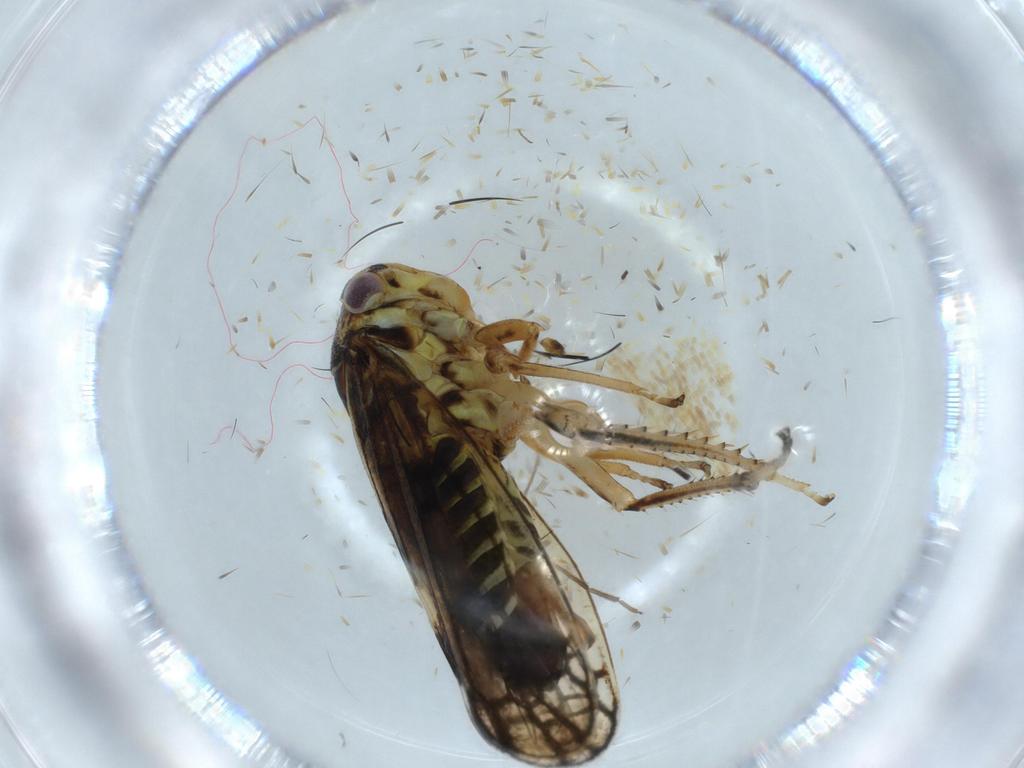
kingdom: Animalia
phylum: Arthropoda
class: Insecta
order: Hemiptera
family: Cicadellidae
